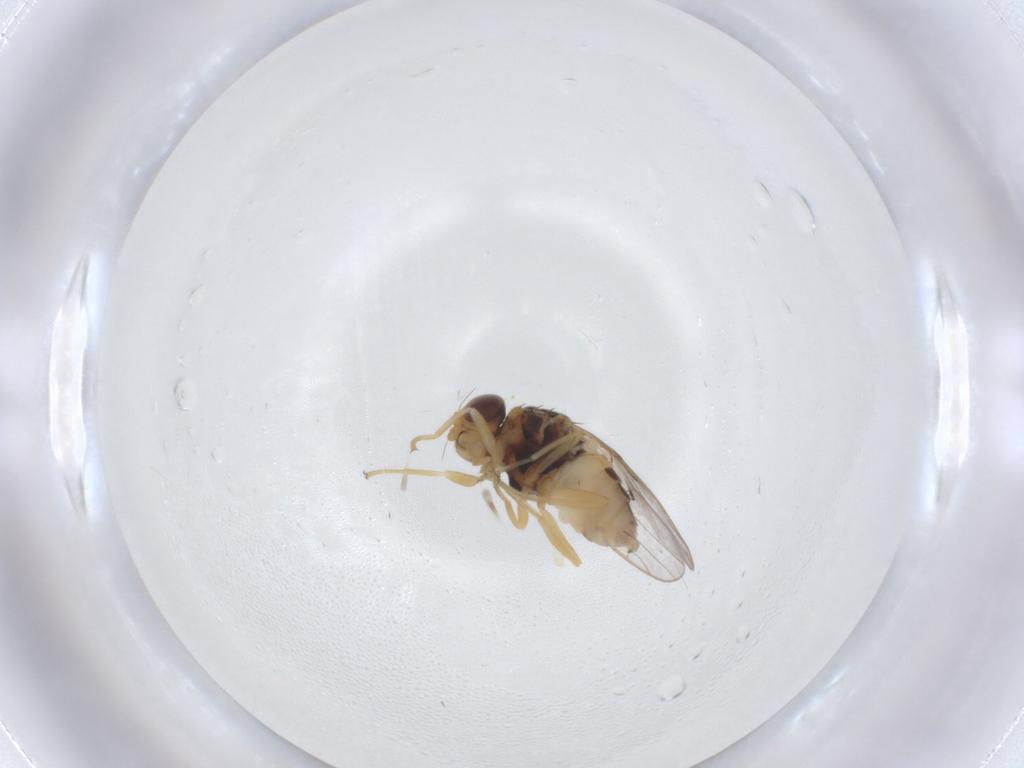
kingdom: Animalia
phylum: Arthropoda
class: Insecta
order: Diptera
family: Chloropidae
